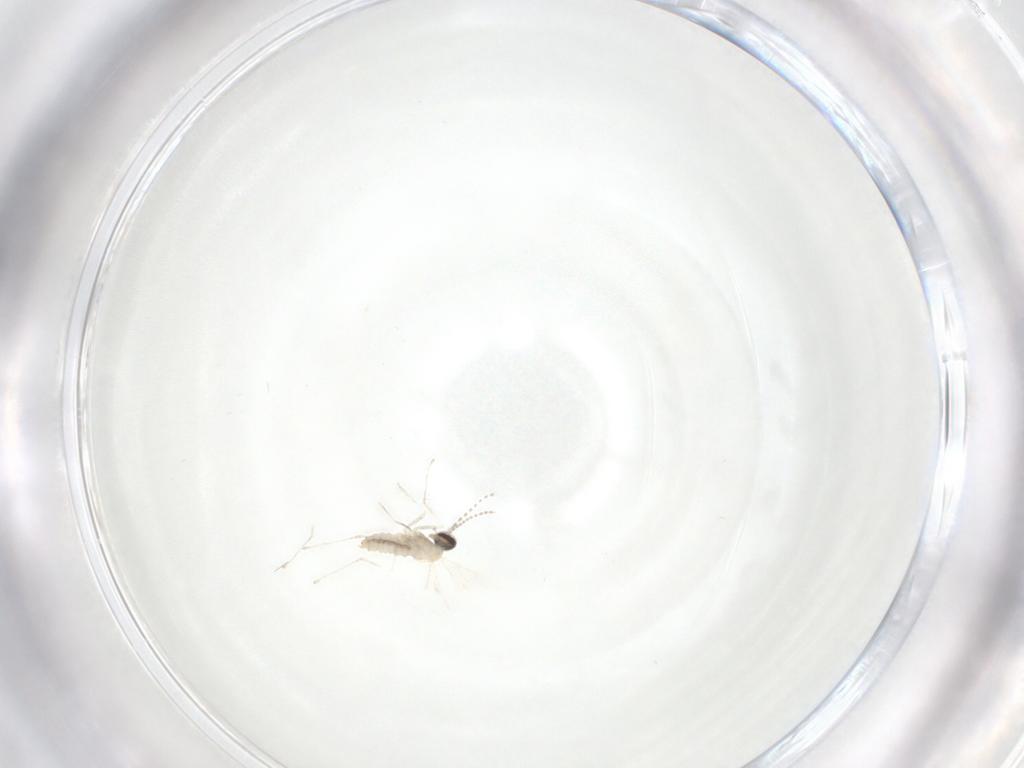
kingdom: Animalia
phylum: Arthropoda
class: Insecta
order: Diptera
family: Cecidomyiidae
